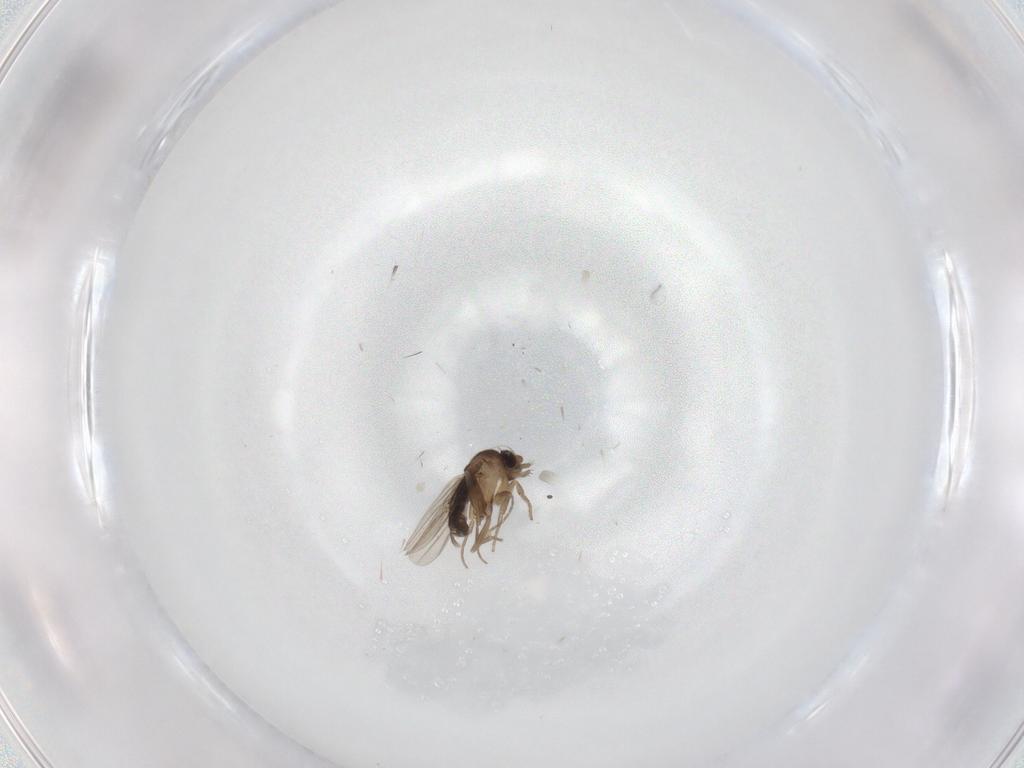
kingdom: Animalia
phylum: Arthropoda
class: Insecta
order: Diptera
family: Phoridae
